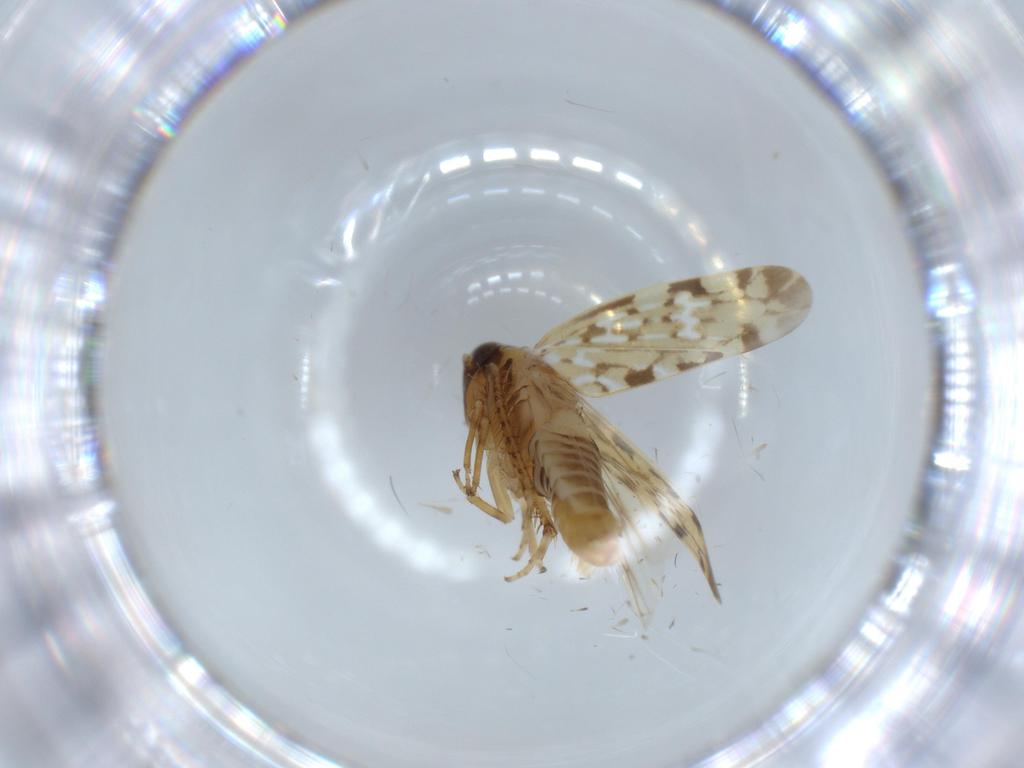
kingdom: Animalia
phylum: Arthropoda
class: Insecta
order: Hemiptera
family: Cicadellidae
